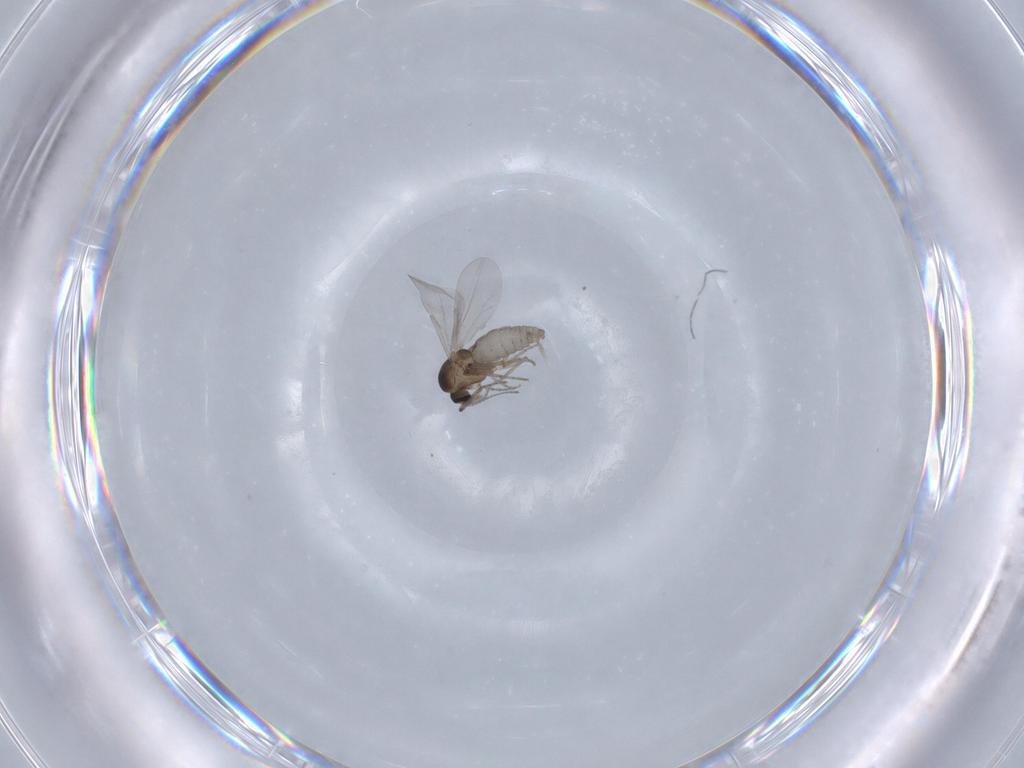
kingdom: Animalia
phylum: Arthropoda
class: Insecta
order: Diptera
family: Ceratopogonidae
